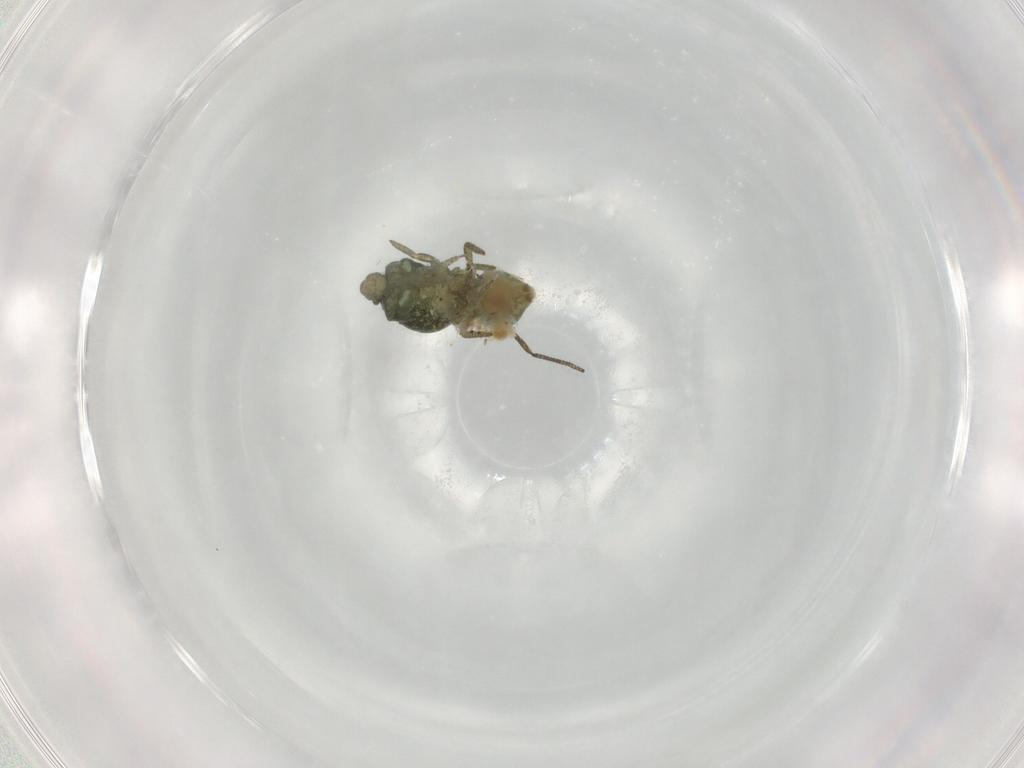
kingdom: Animalia
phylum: Arthropoda
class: Collembola
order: Symphypleona
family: Sminthuridae
